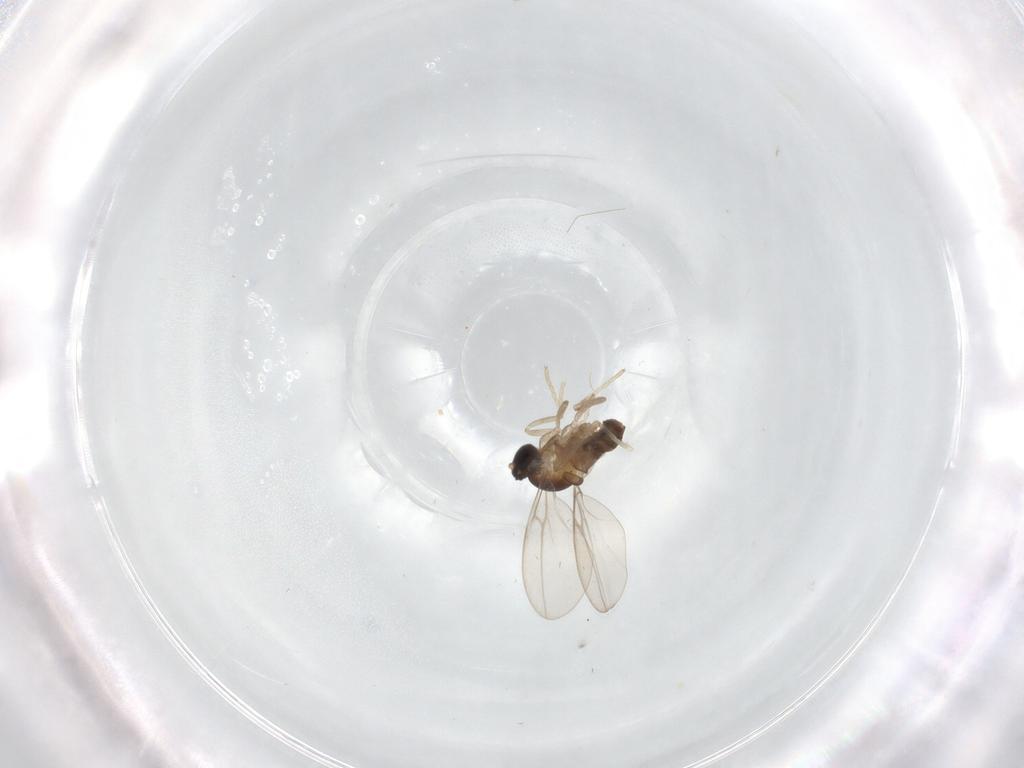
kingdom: Animalia
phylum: Arthropoda
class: Insecta
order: Diptera
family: Cecidomyiidae
